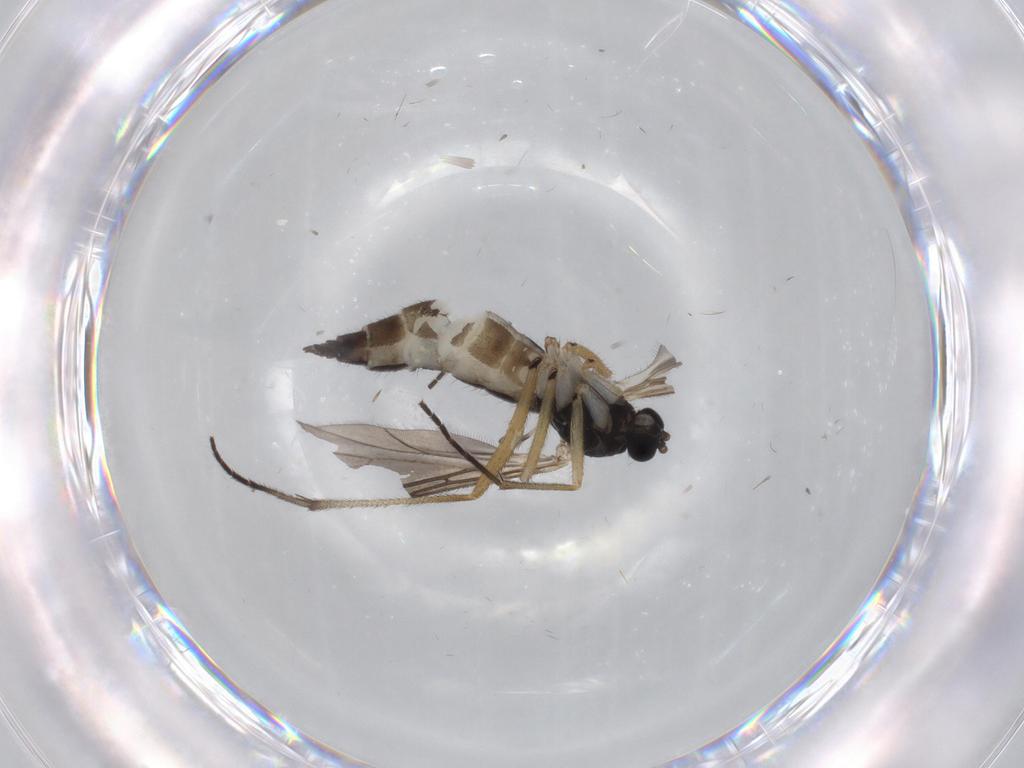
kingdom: Animalia
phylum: Arthropoda
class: Insecta
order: Diptera
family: Sciaridae
